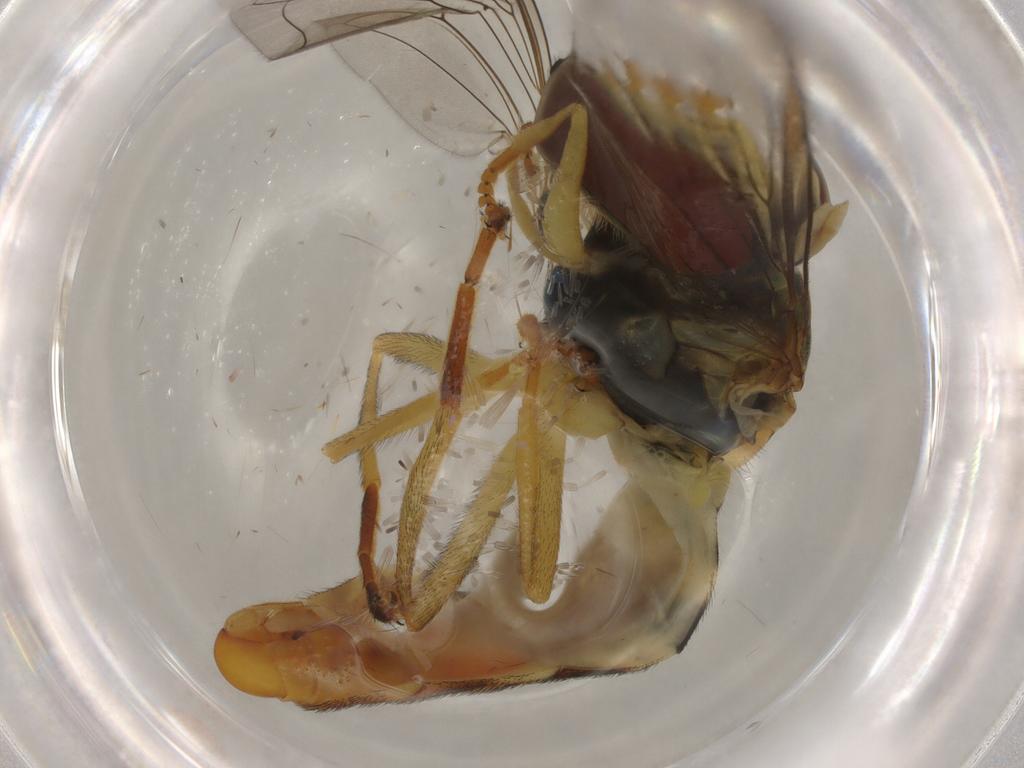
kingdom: Animalia
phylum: Arthropoda
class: Insecta
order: Diptera
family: Syrphidae
